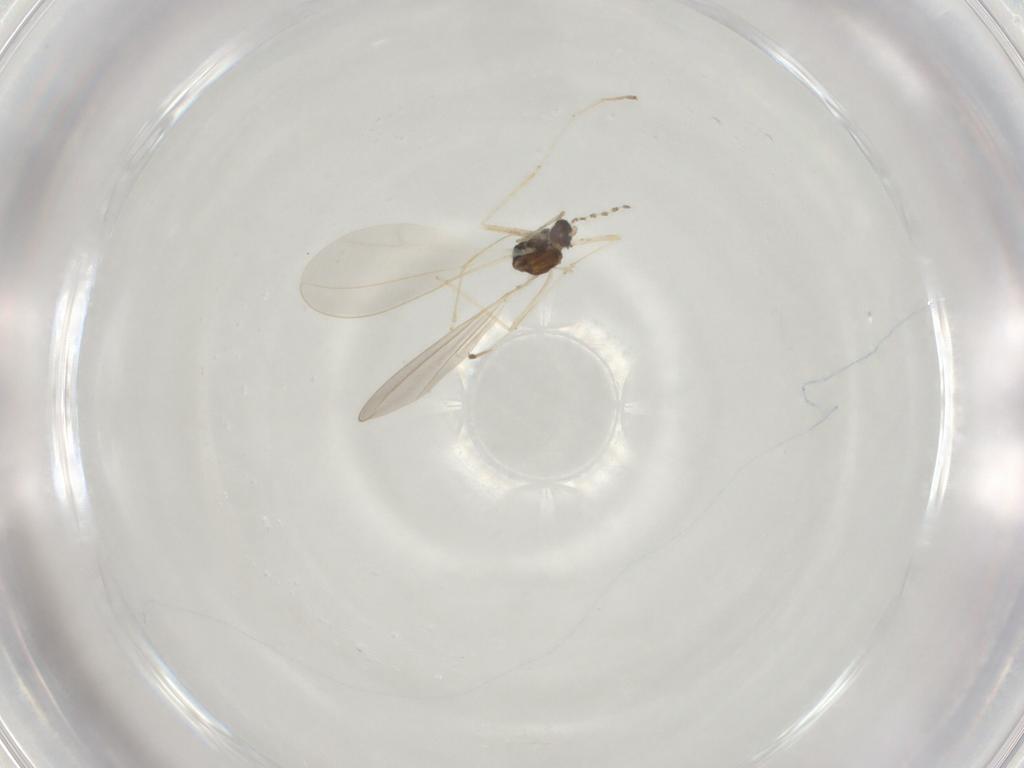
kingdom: Animalia
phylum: Arthropoda
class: Insecta
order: Diptera
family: Cecidomyiidae
